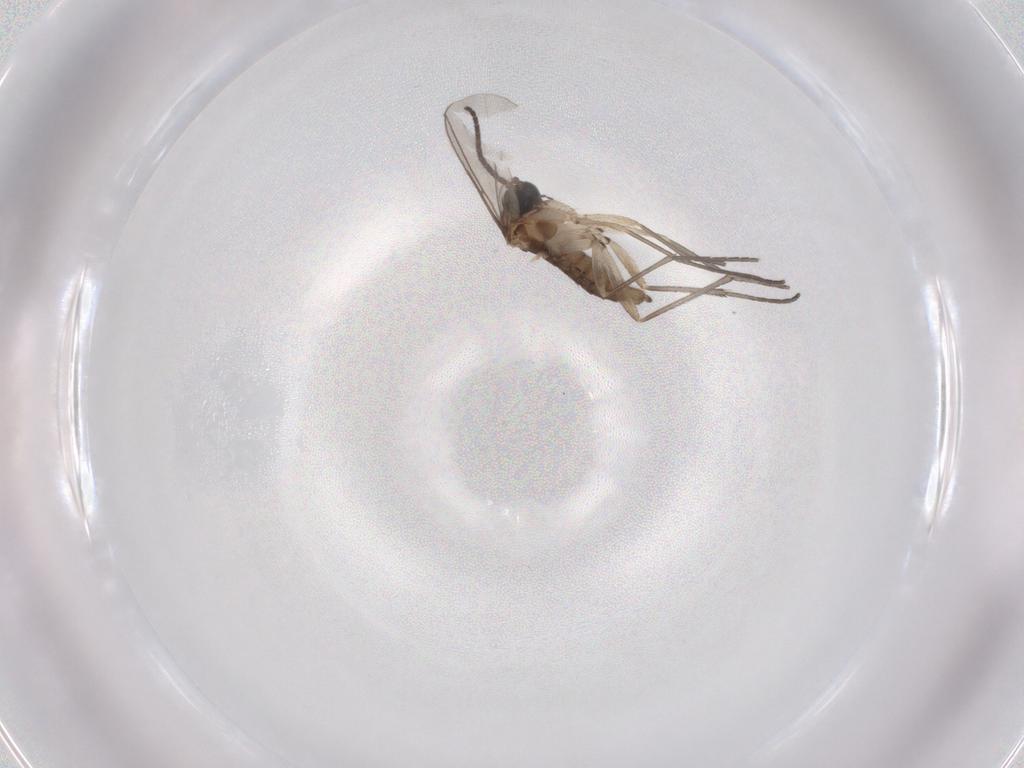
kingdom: Animalia
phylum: Arthropoda
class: Insecta
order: Diptera
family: Sciaridae
